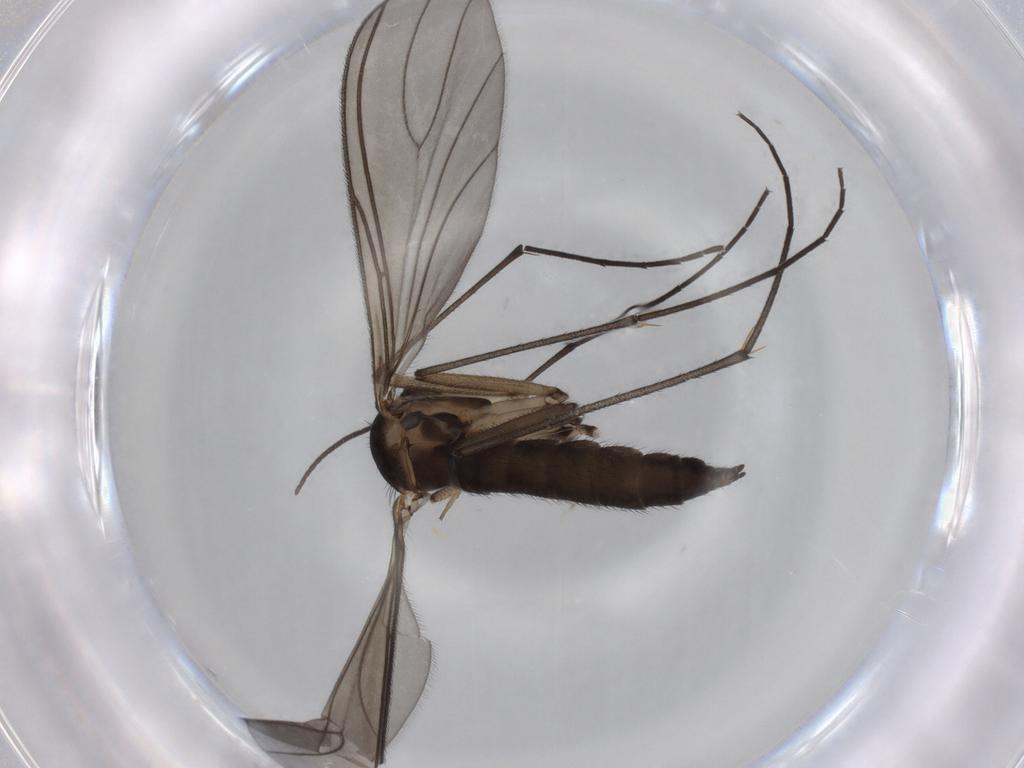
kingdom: Animalia
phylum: Arthropoda
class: Insecta
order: Diptera
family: Sciaridae
